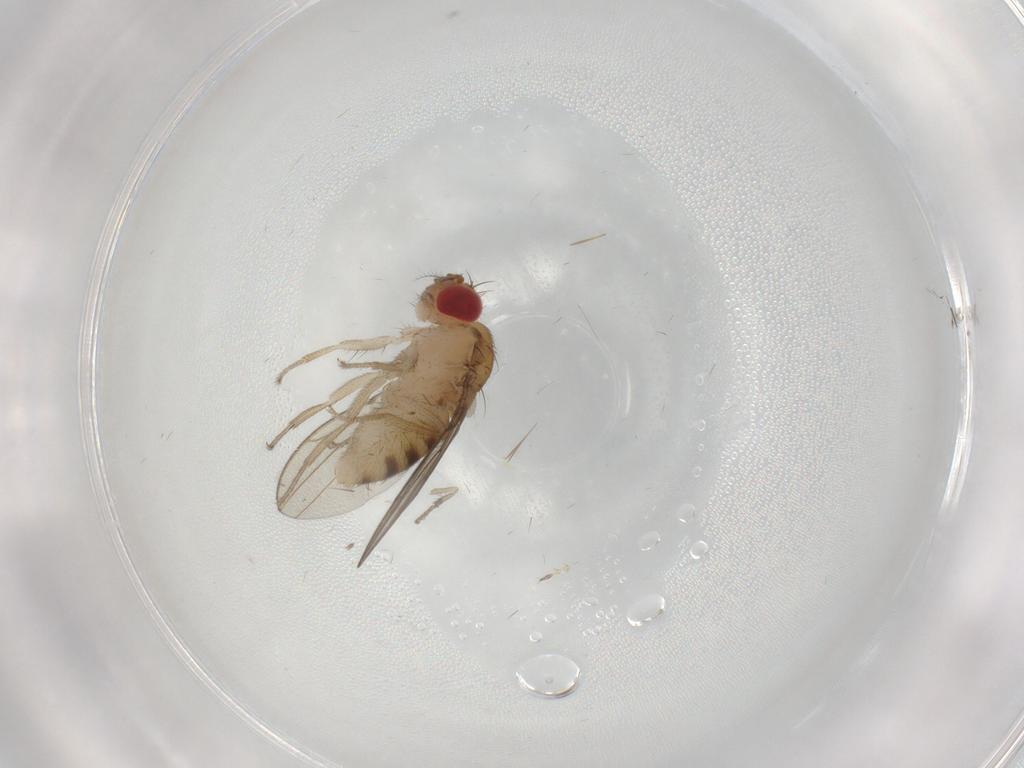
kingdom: Animalia
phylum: Arthropoda
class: Insecta
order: Diptera
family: Drosophilidae
